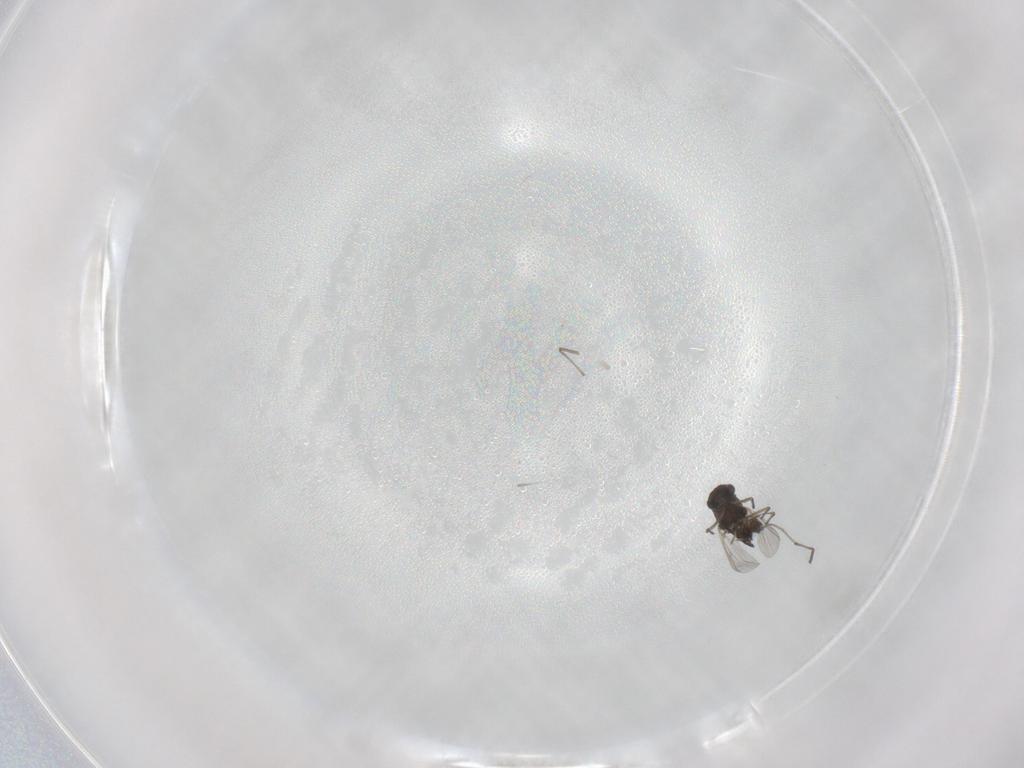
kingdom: Animalia
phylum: Arthropoda
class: Insecta
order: Diptera
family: Chironomidae
